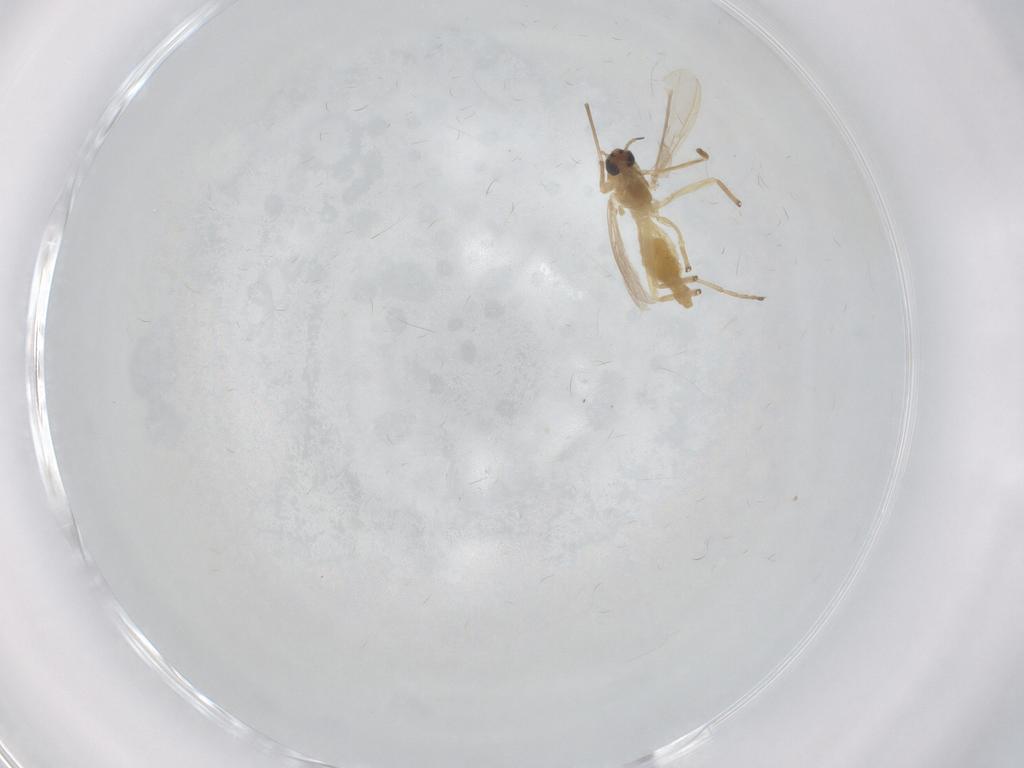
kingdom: Animalia
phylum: Arthropoda
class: Insecta
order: Diptera
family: Chironomidae
